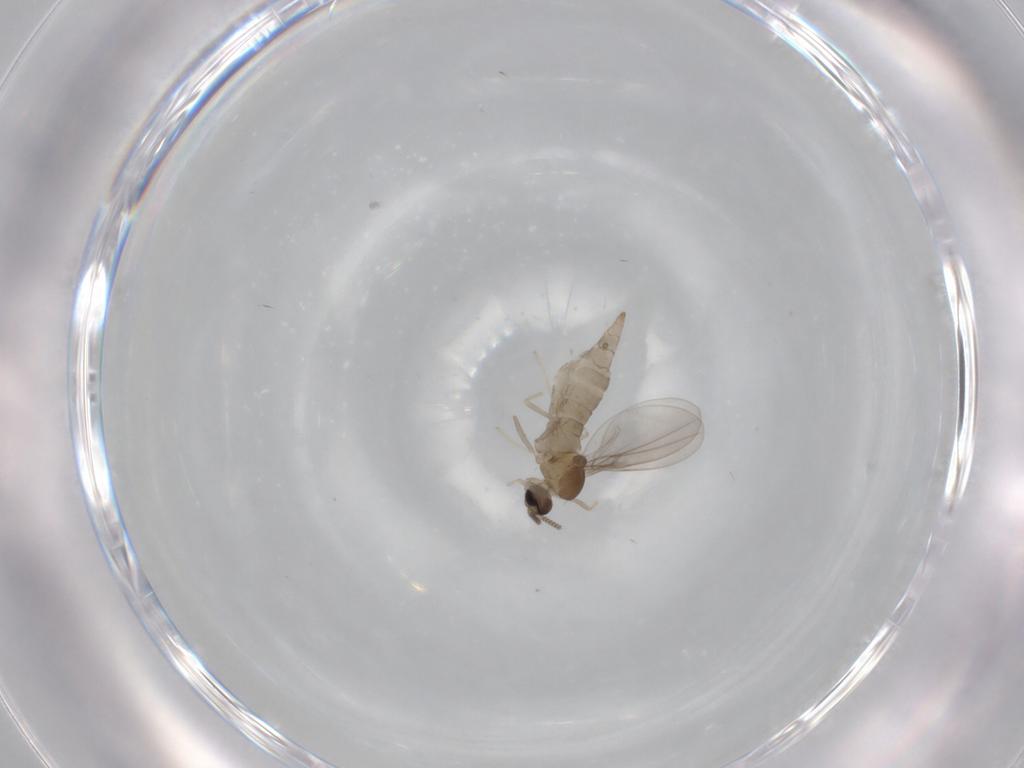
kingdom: Animalia
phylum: Arthropoda
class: Insecta
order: Diptera
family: Cecidomyiidae
